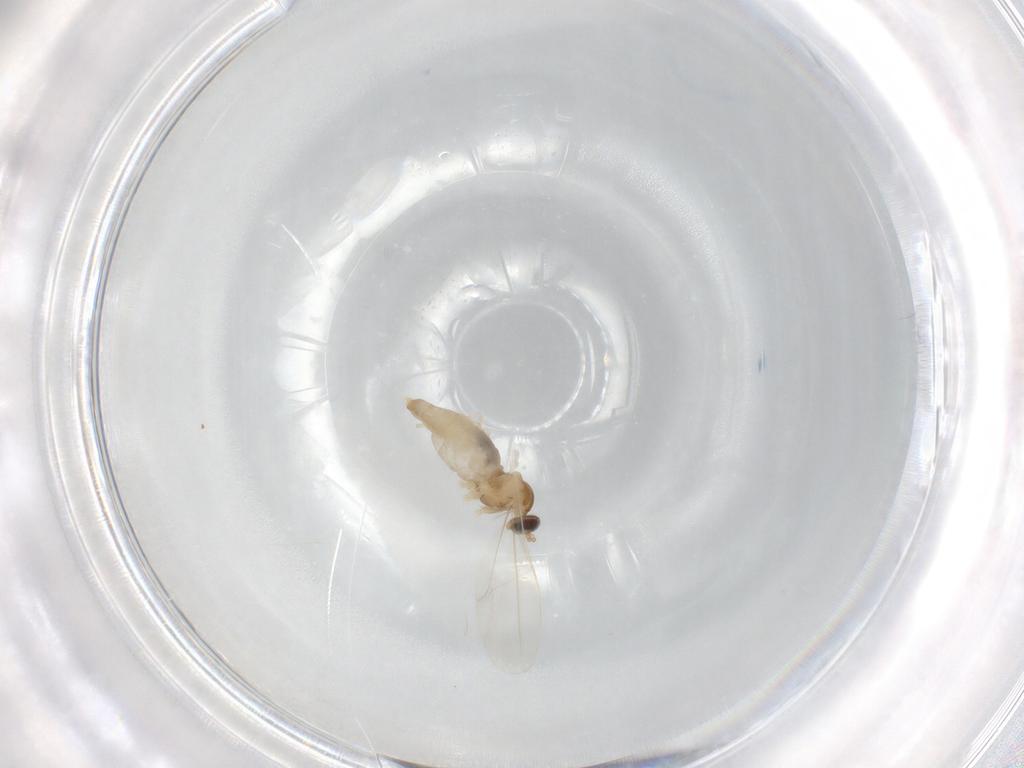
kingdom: Animalia
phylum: Arthropoda
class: Insecta
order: Diptera
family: Cecidomyiidae
